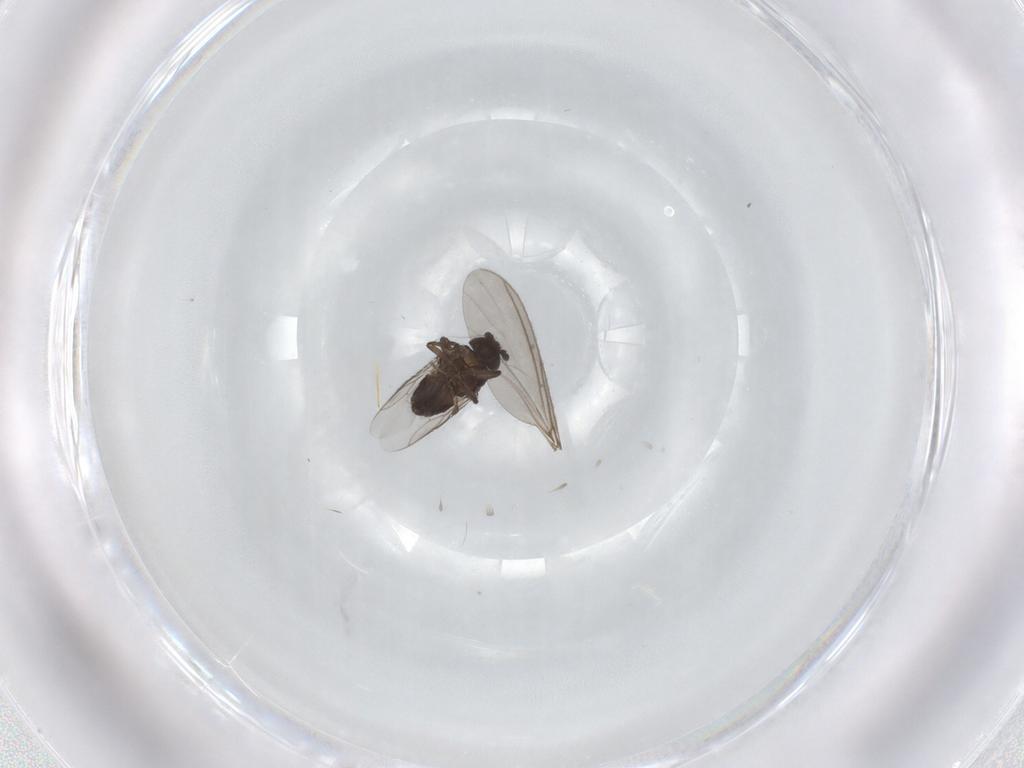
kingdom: Animalia
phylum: Arthropoda
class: Insecta
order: Diptera
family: Sphaeroceridae
